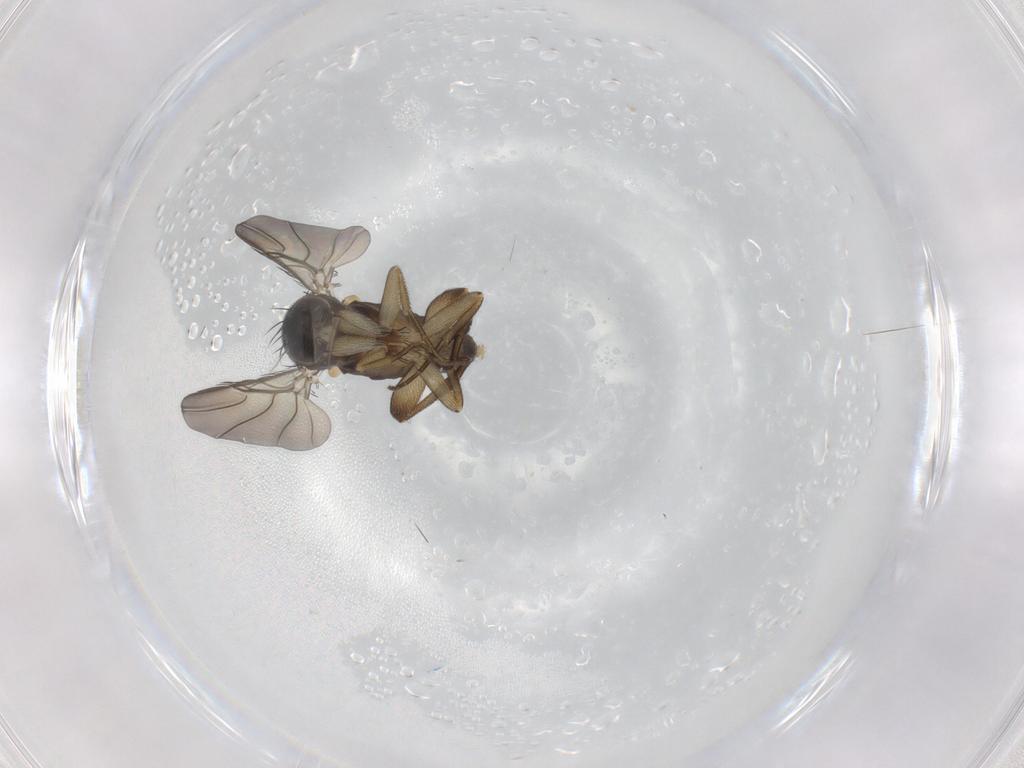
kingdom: Animalia
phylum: Arthropoda
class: Insecta
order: Diptera
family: Phoridae
